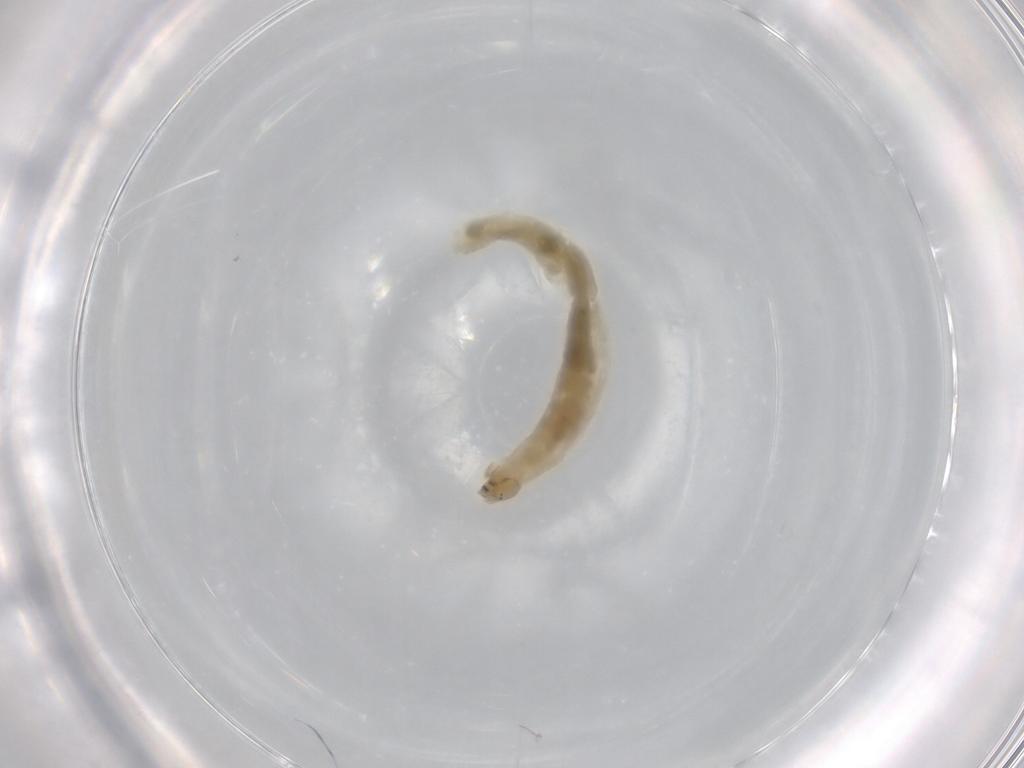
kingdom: Animalia
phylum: Arthropoda
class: Insecta
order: Diptera
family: Chironomidae
